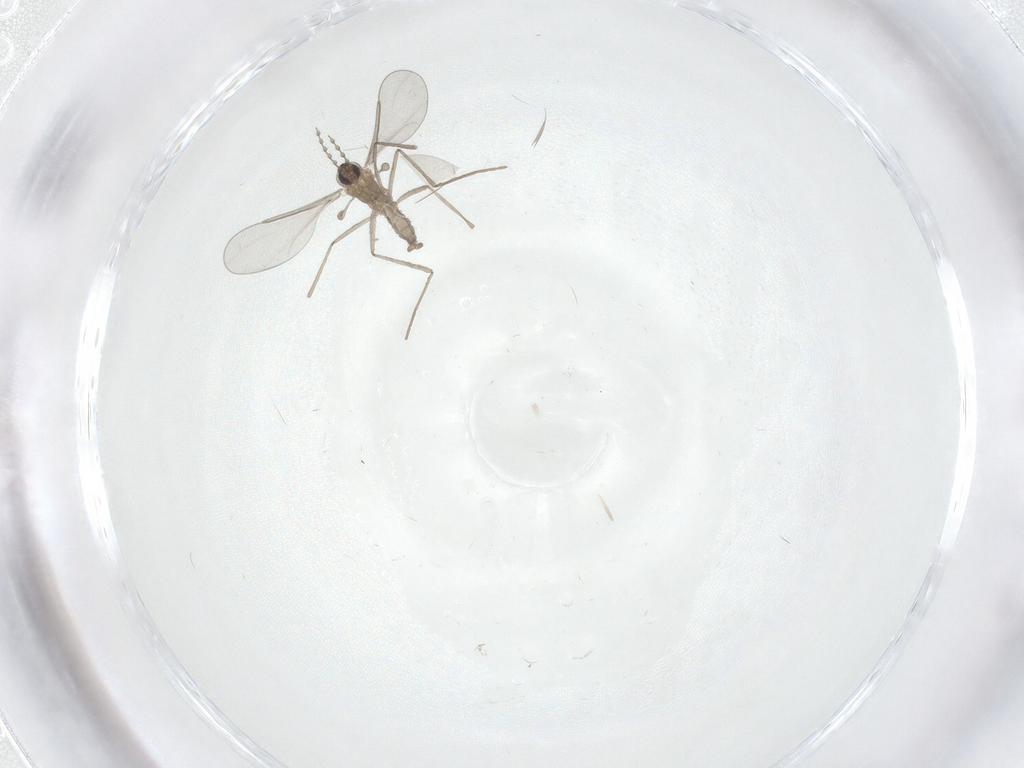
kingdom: Animalia
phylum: Arthropoda
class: Insecta
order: Diptera
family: Cecidomyiidae
